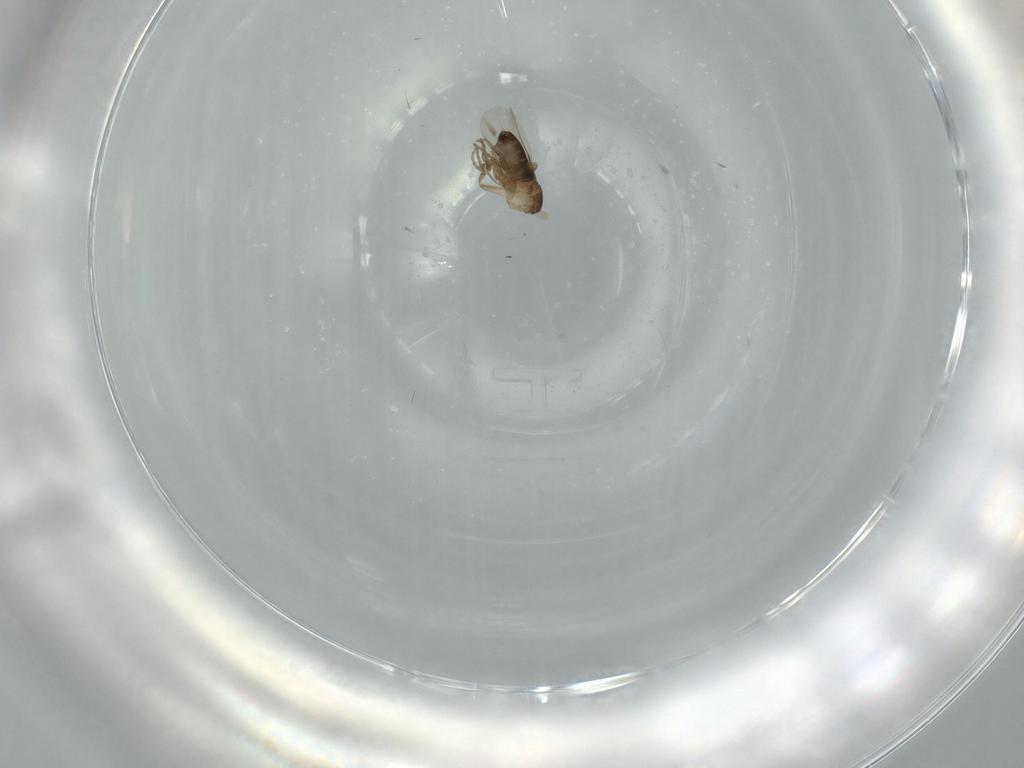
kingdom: Animalia
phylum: Arthropoda
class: Insecta
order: Diptera
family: Phoridae
